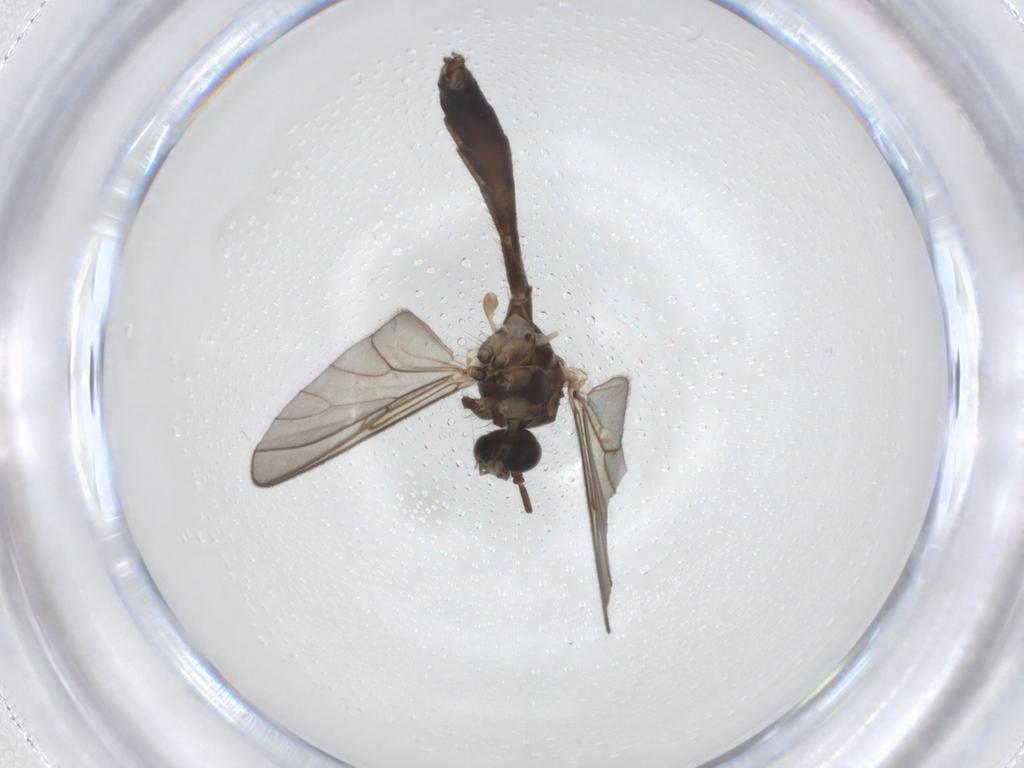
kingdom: Animalia
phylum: Arthropoda
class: Insecta
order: Diptera
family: Mycetophilidae
